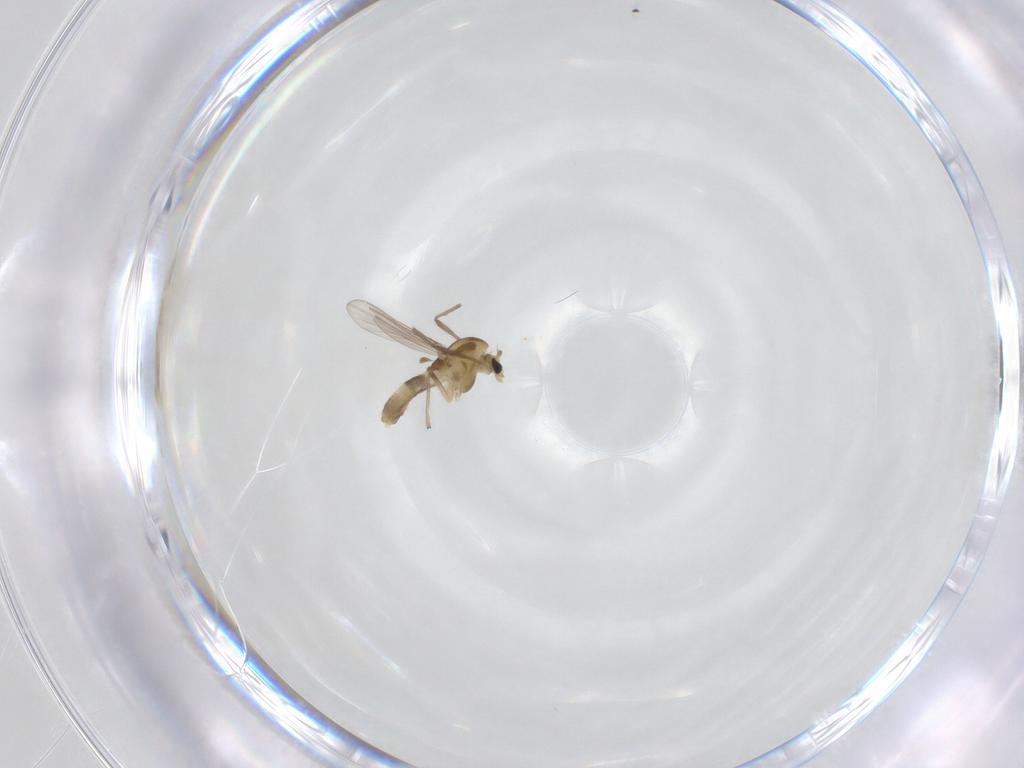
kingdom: Animalia
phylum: Arthropoda
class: Insecta
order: Diptera
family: Chironomidae
